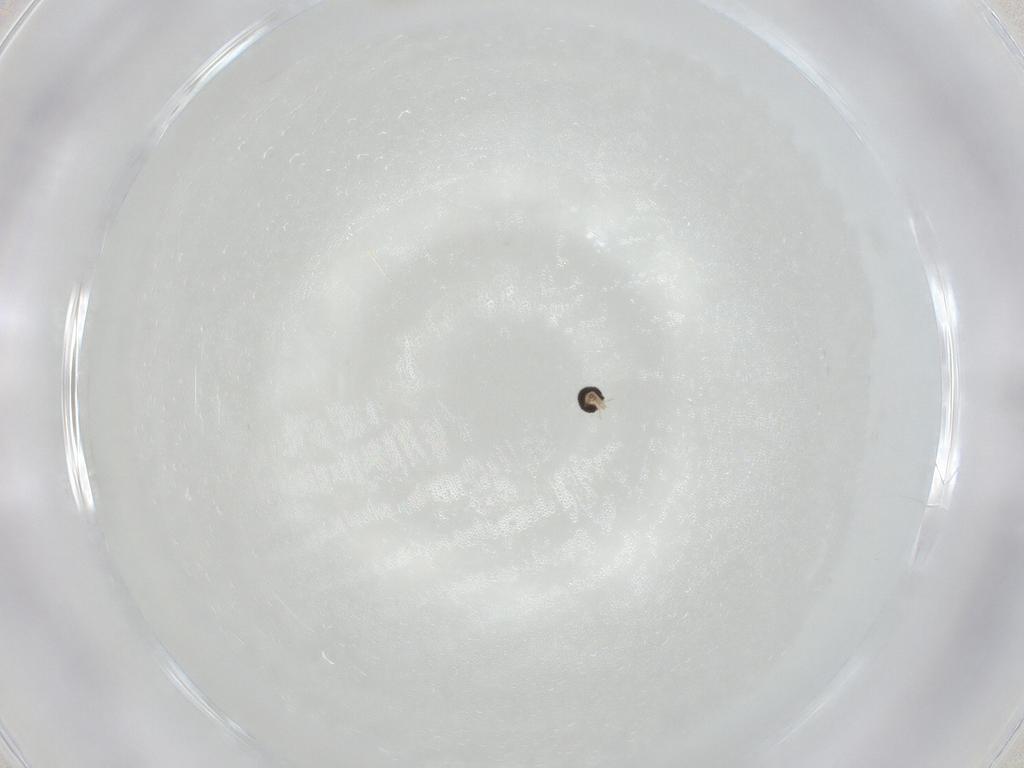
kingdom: Animalia
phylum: Arthropoda
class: Insecta
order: Diptera
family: Cecidomyiidae
